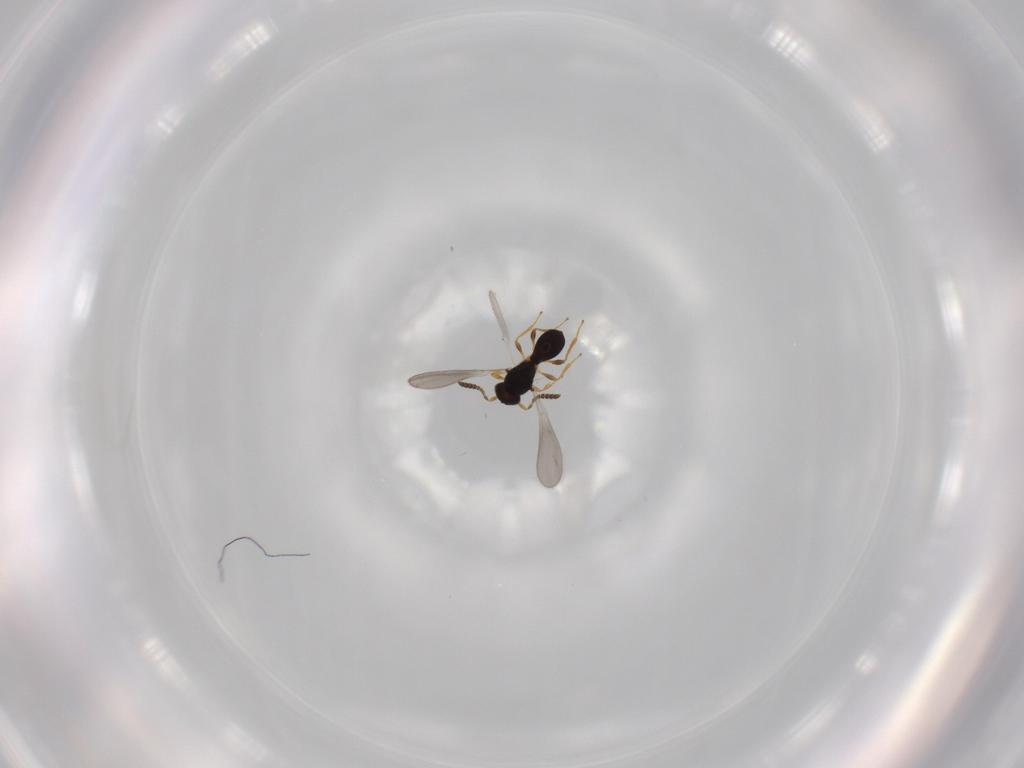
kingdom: Animalia
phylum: Arthropoda
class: Insecta
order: Hymenoptera
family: Platygastridae
